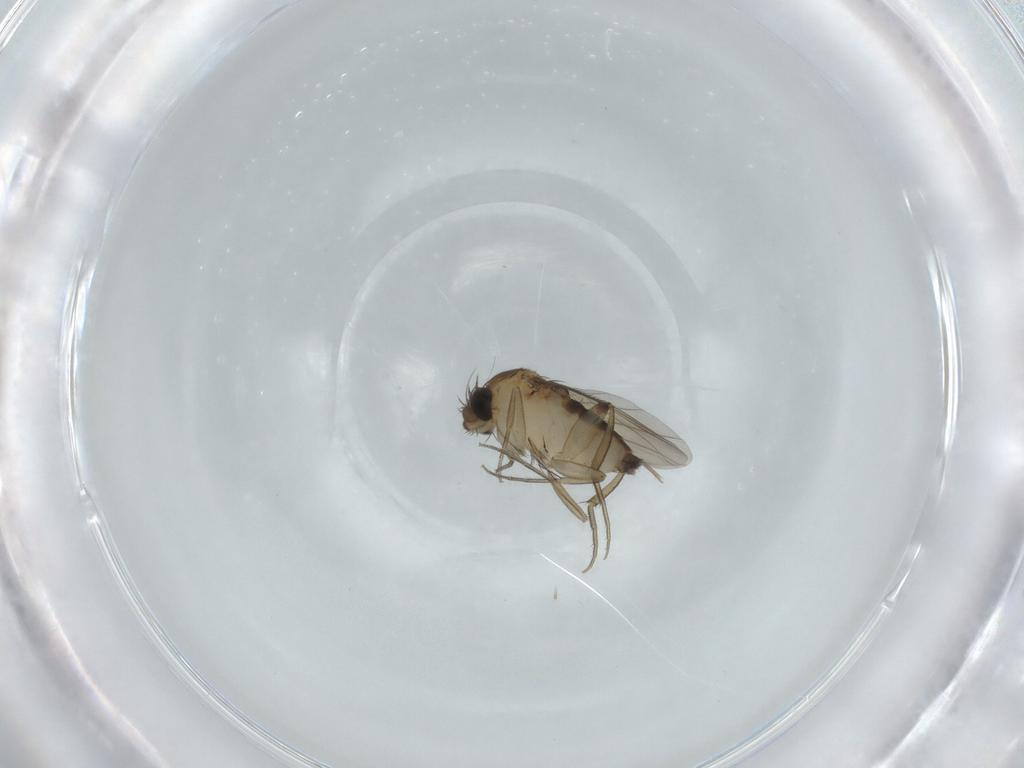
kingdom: Animalia
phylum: Arthropoda
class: Insecta
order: Diptera
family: Phoridae
